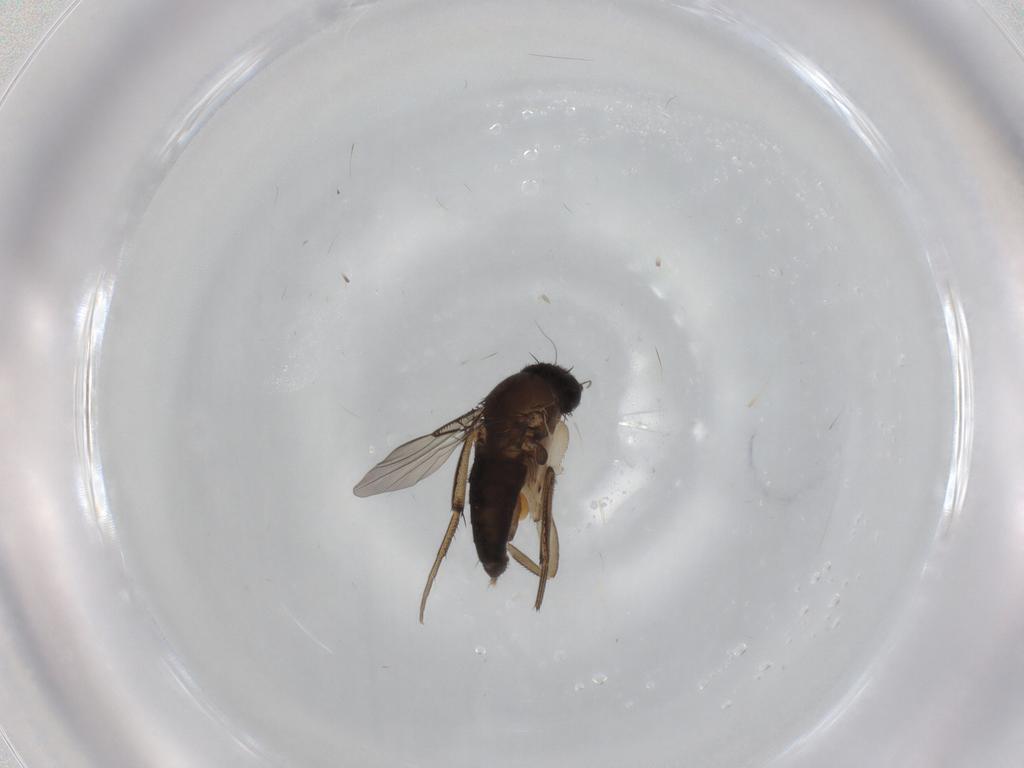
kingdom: Animalia
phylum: Arthropoda
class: Insecta
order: Diptera
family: Phoridae
